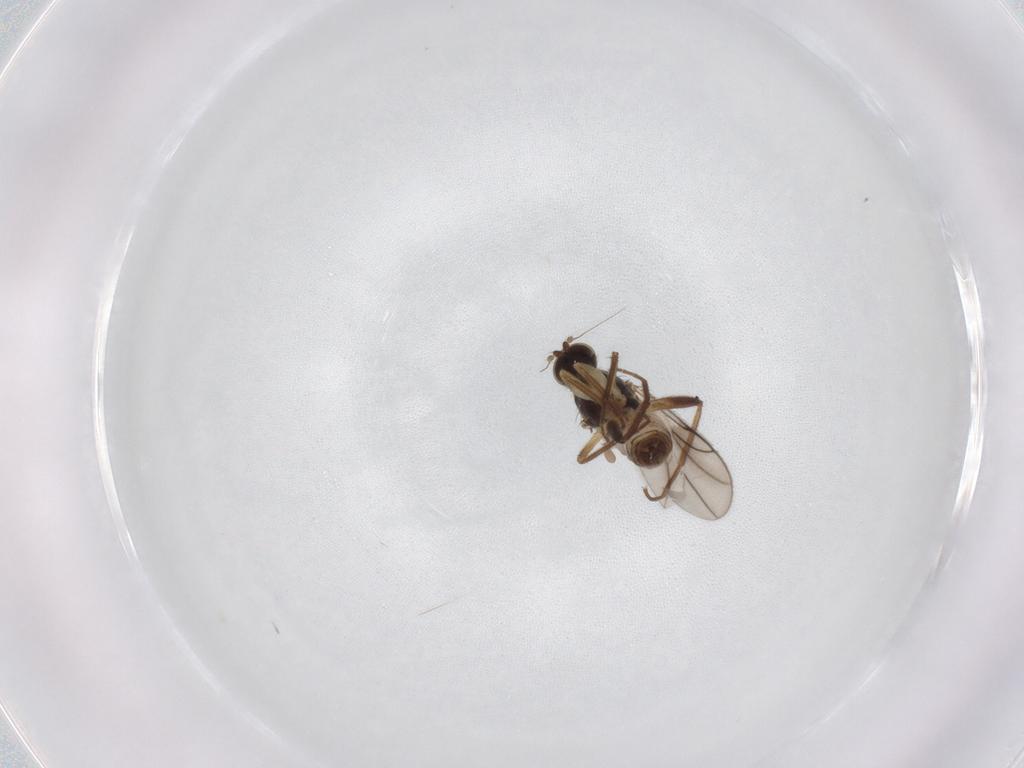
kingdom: Animalia
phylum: Arthropoda
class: Insecta
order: Diptera
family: Hybotidae
